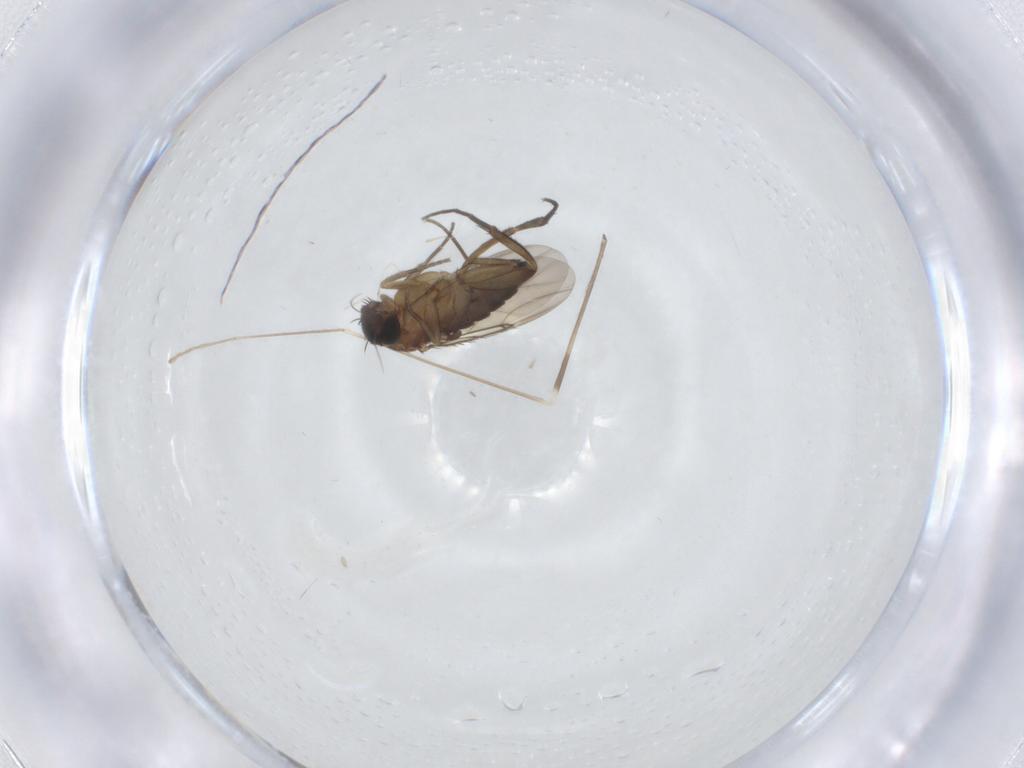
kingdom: Animalia
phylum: Arthropoda
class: Insecta
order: Diptera
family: Phoridae
